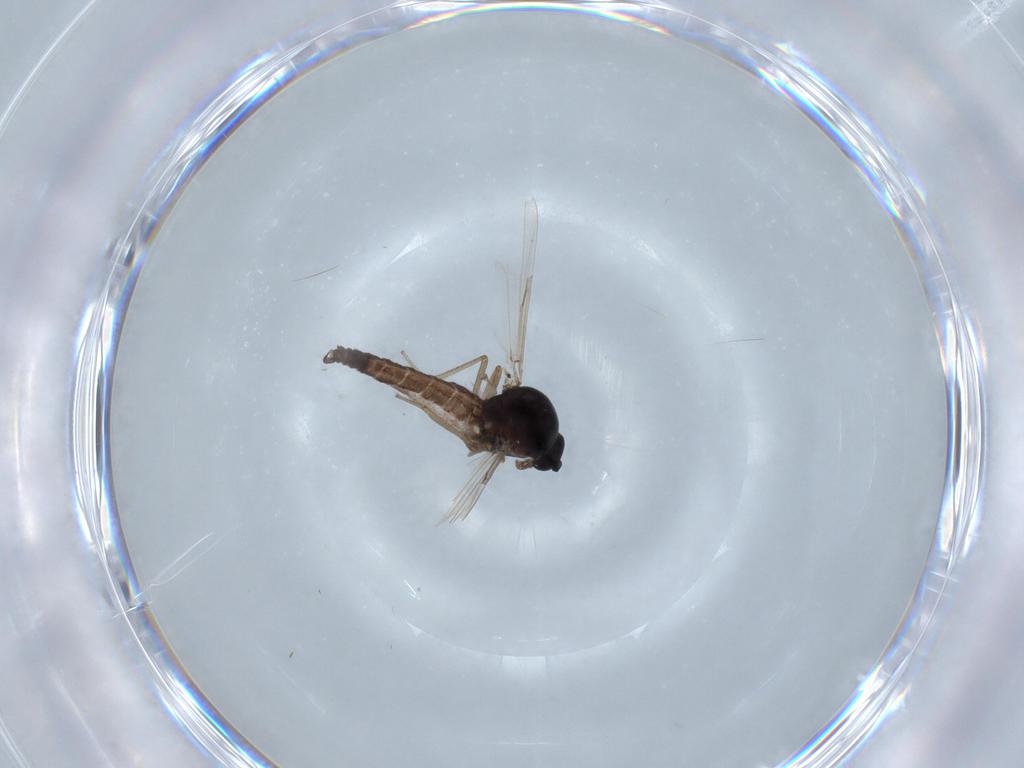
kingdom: Animalia
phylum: Arthropoda
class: Insecta
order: Diptera
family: Ceratopogonidae
